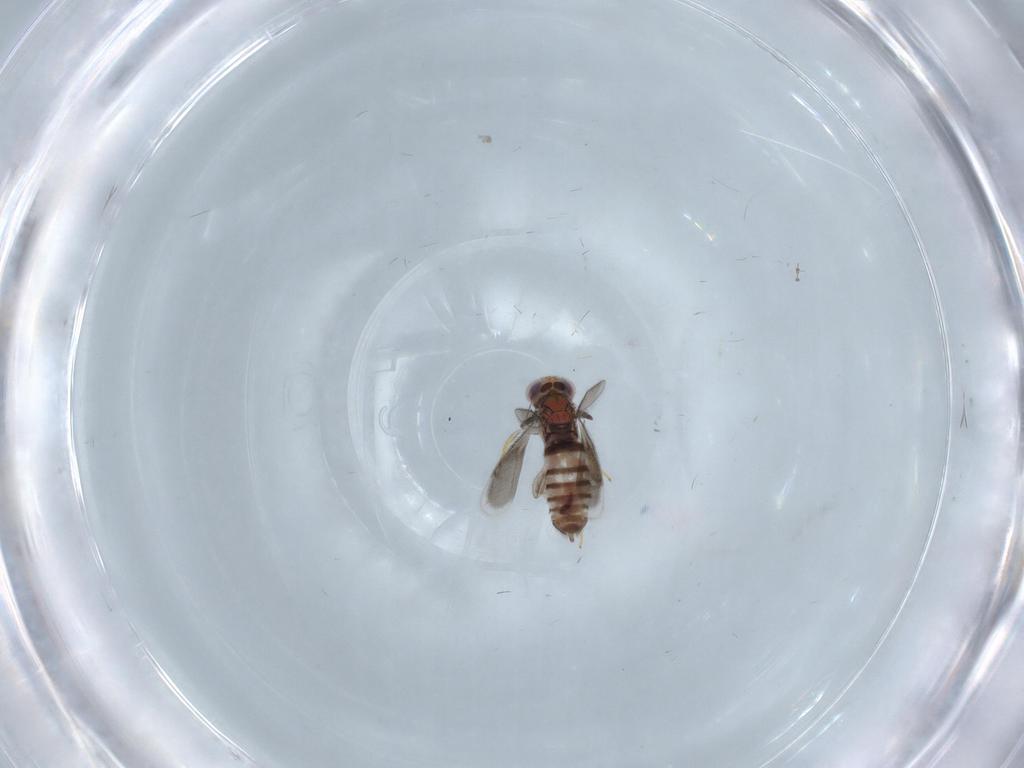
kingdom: Animalia
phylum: Arthropoda
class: Insecta
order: Diptera
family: Ceratopogonidae
